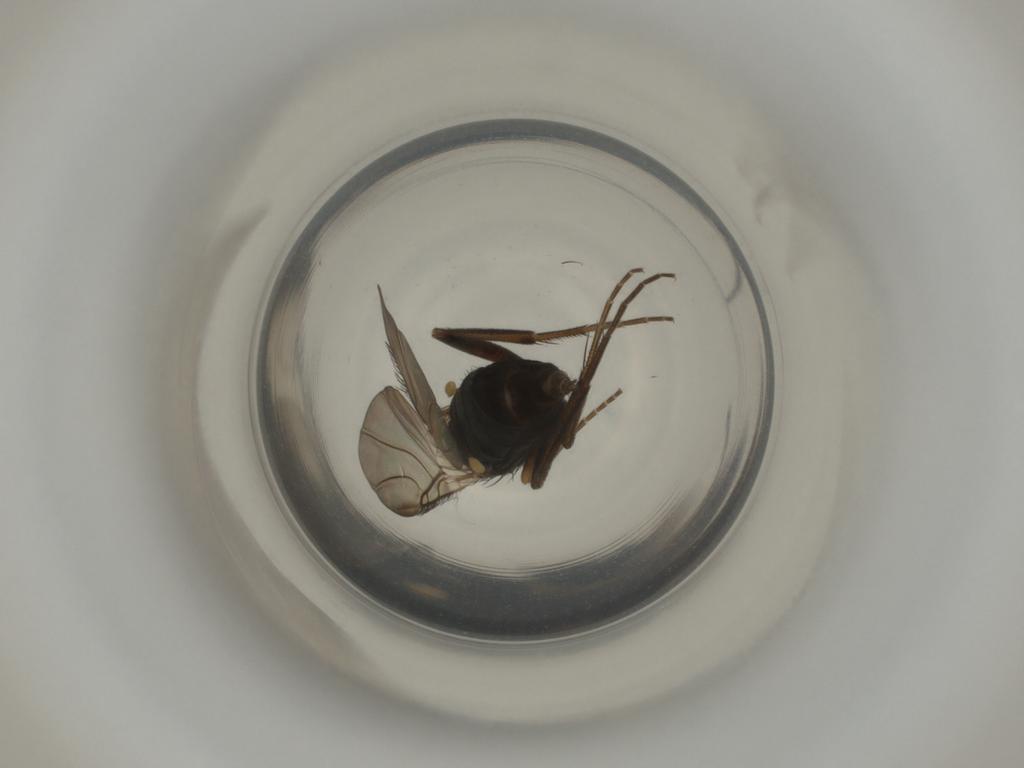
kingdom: Animalia
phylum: Arthropoda
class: Insecta
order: Diptera
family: Phoridae
